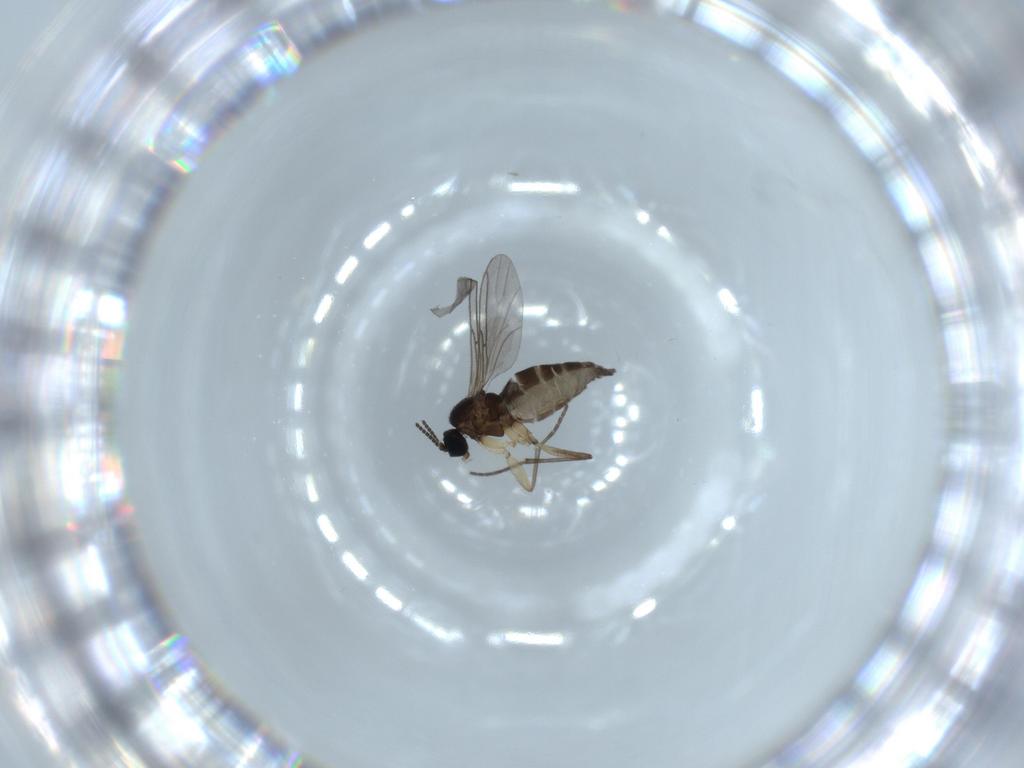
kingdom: Animalia
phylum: Arthropoda
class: Insecta
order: Diptera
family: Sciaridae
